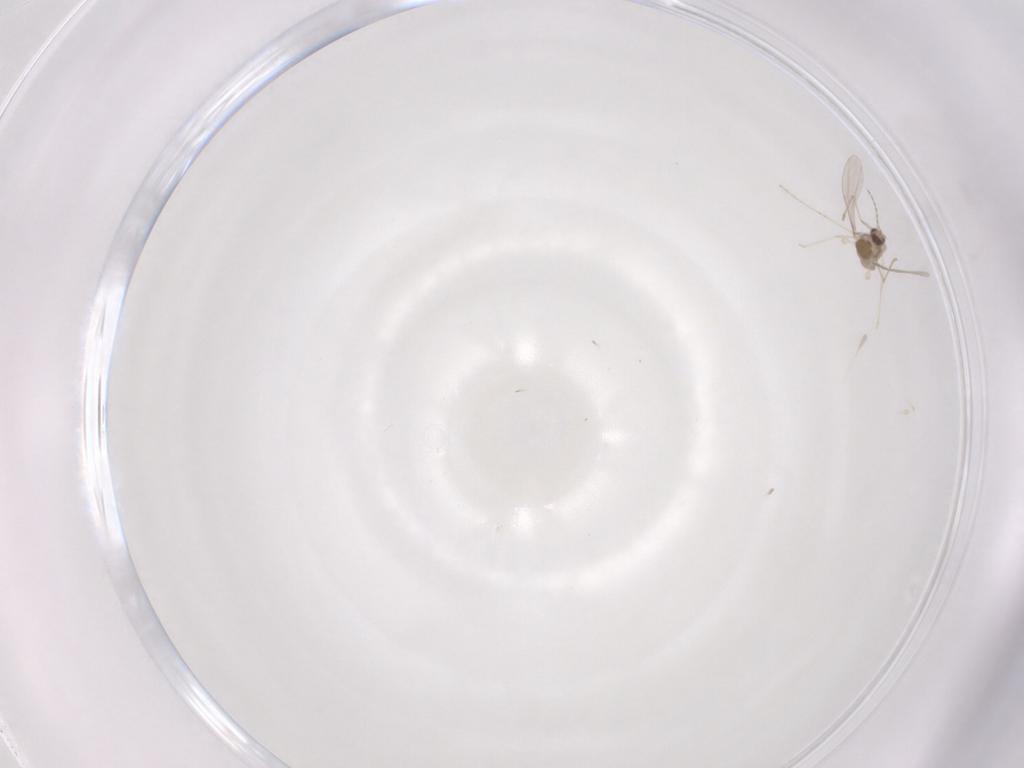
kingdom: Animalia
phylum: Arthropoda
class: Insecta
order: Diptera
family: Cecidomyiidae
